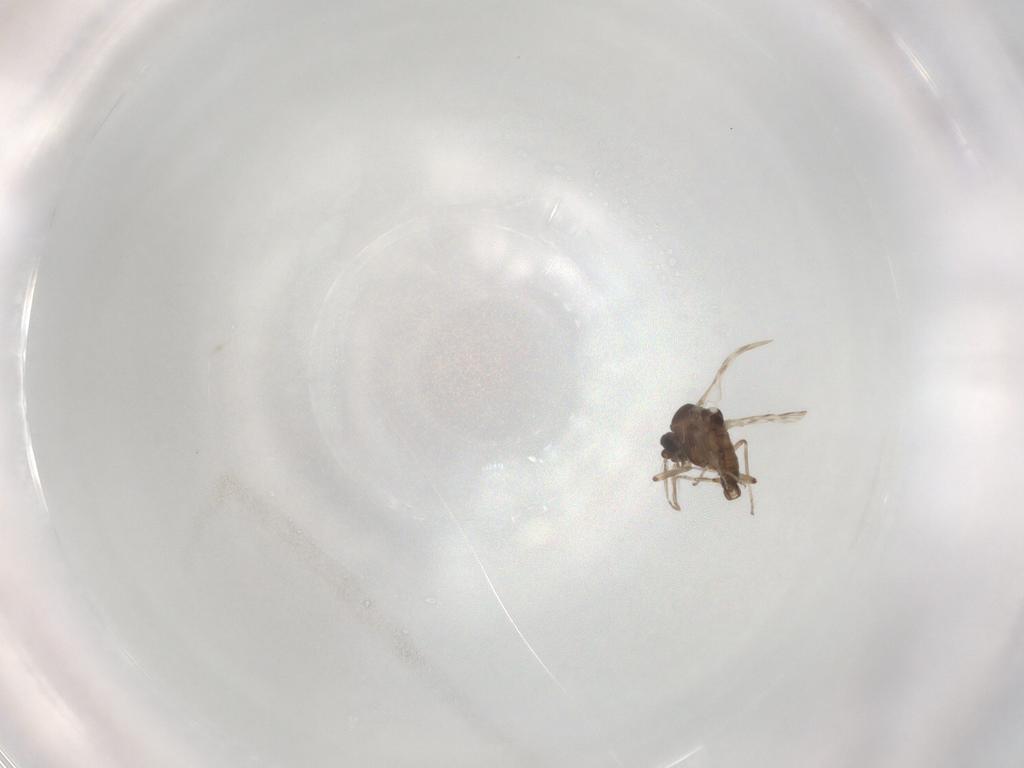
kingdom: Animalia
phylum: Arthropoda
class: Insecta
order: Diptera
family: Ceratopogonidae
